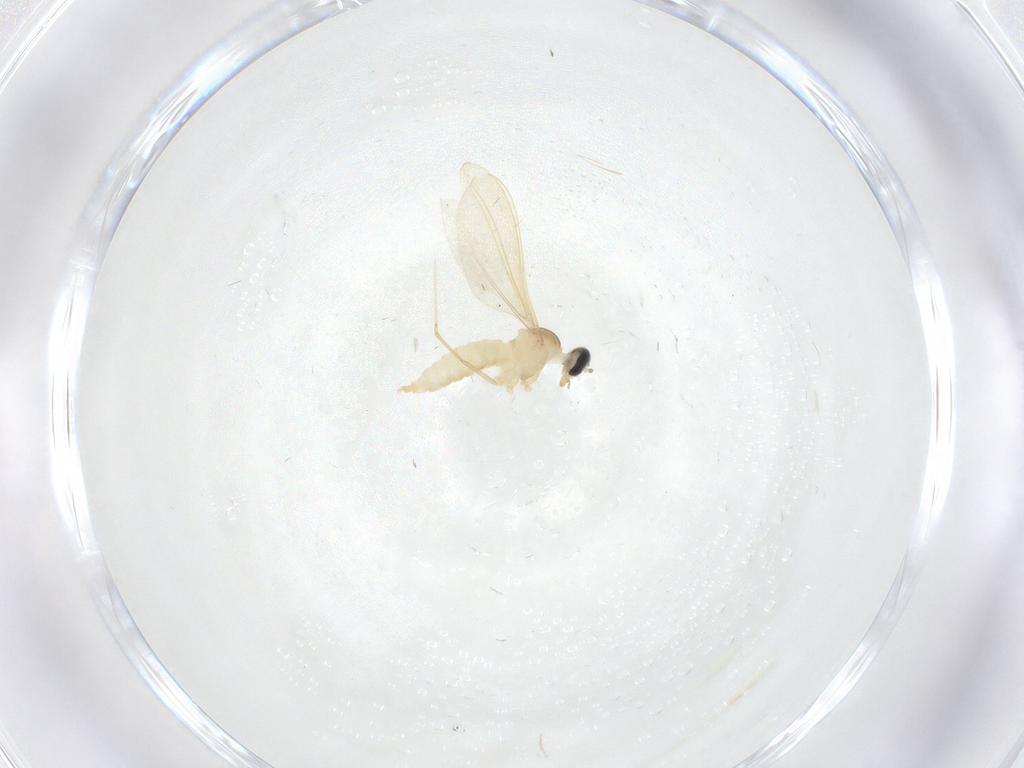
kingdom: Animalia
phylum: Arthropoda
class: Insecta
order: Diptera
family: Cecidomyiidae
